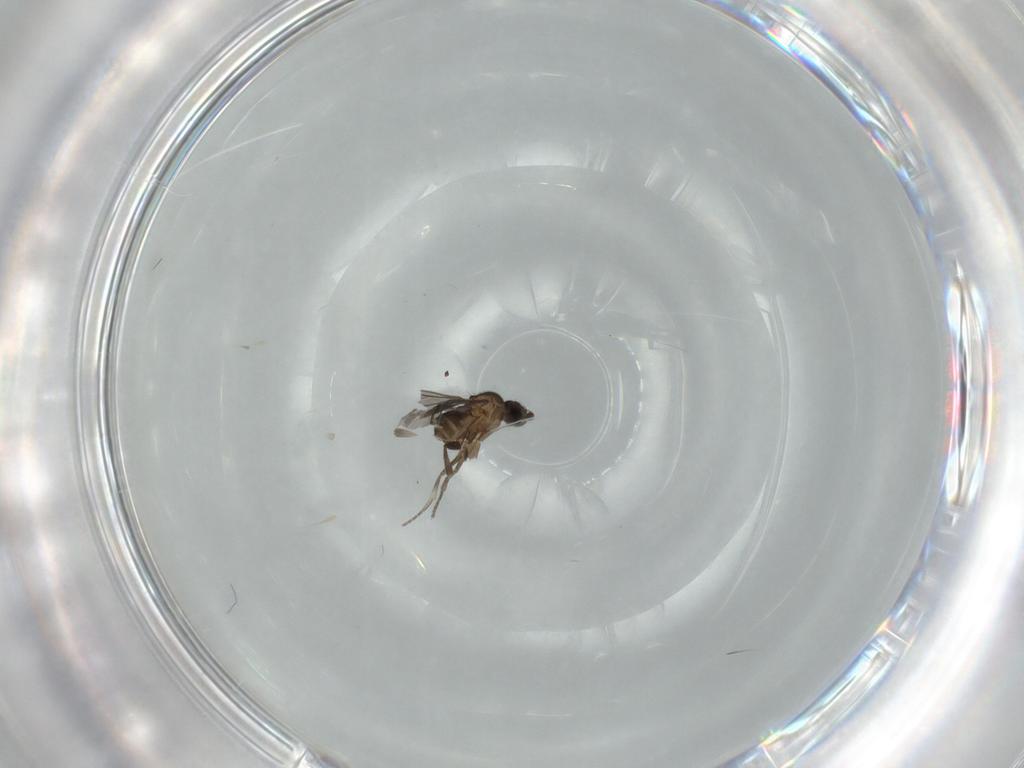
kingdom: Animalia
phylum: Arthropoda
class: Insecta
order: Diptera
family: Phoridae
